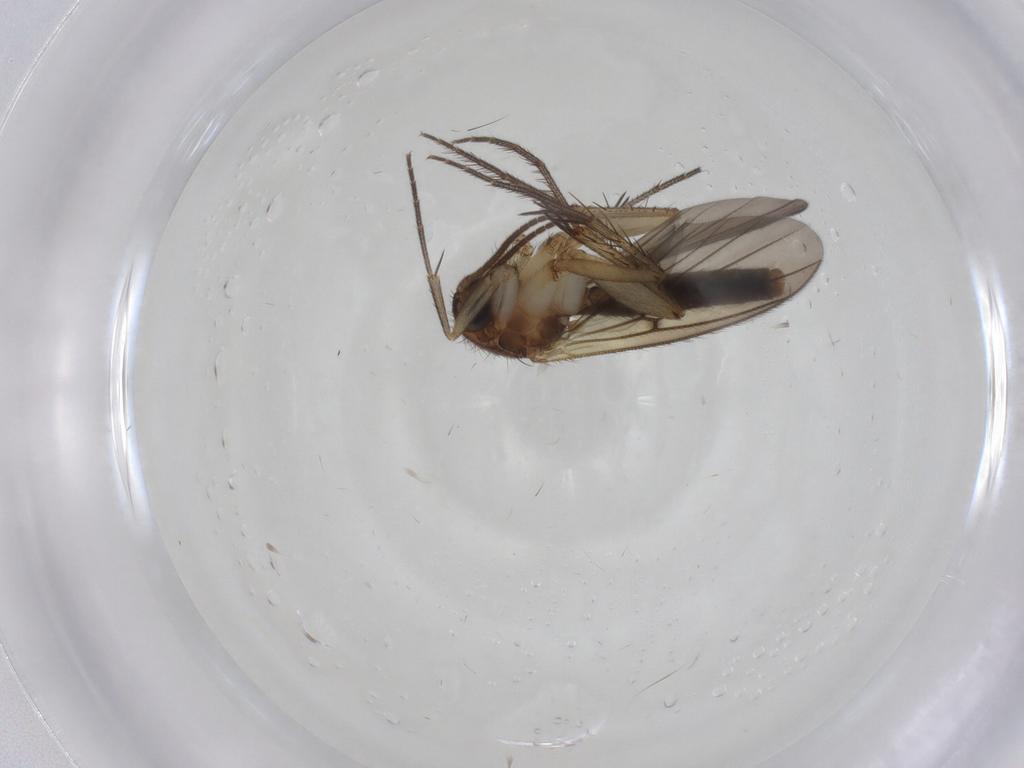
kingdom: Animalia
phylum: Arthropoda
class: Insecta
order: Diptera
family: Mycetophilidae
